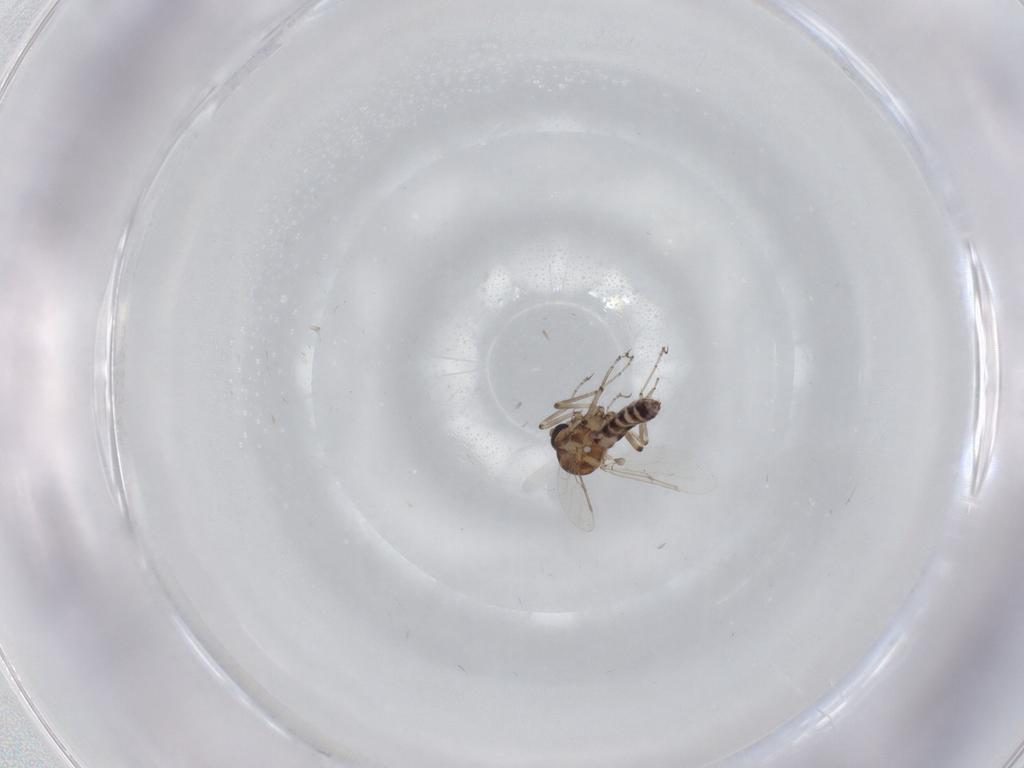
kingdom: Animalia
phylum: Arthropoda
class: Insecta
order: Diptera
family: Ceratopogonidae
